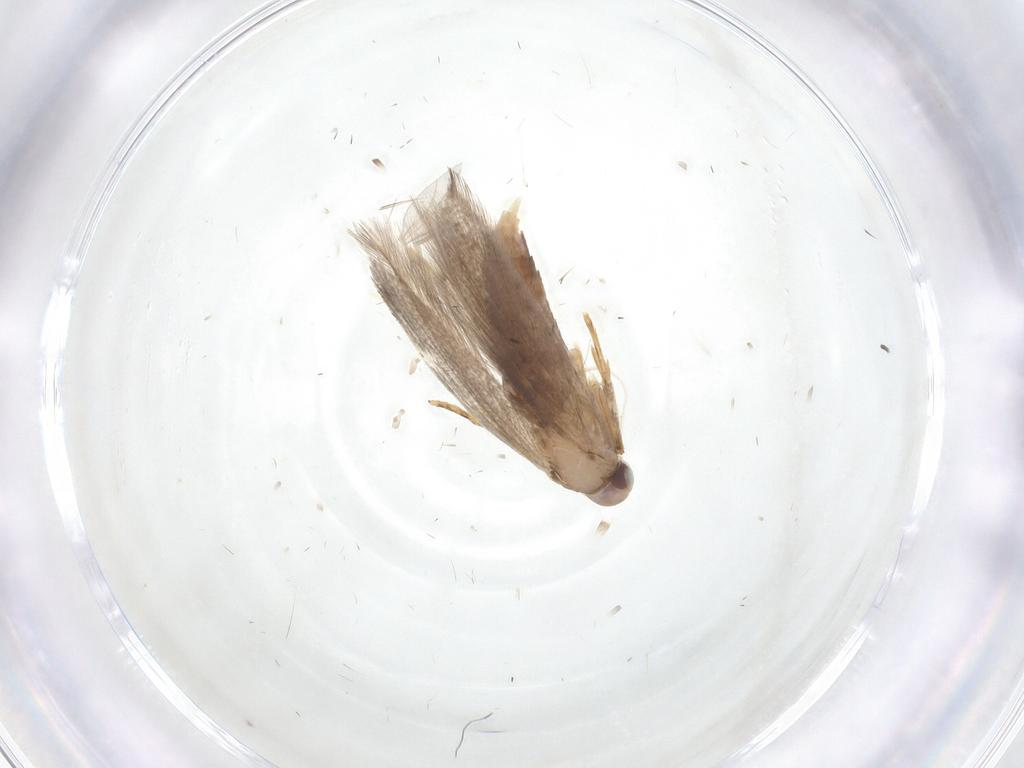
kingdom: Animalia
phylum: Arthropoda
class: Insecta
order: Lepidoptera
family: Cosmopterigidae
